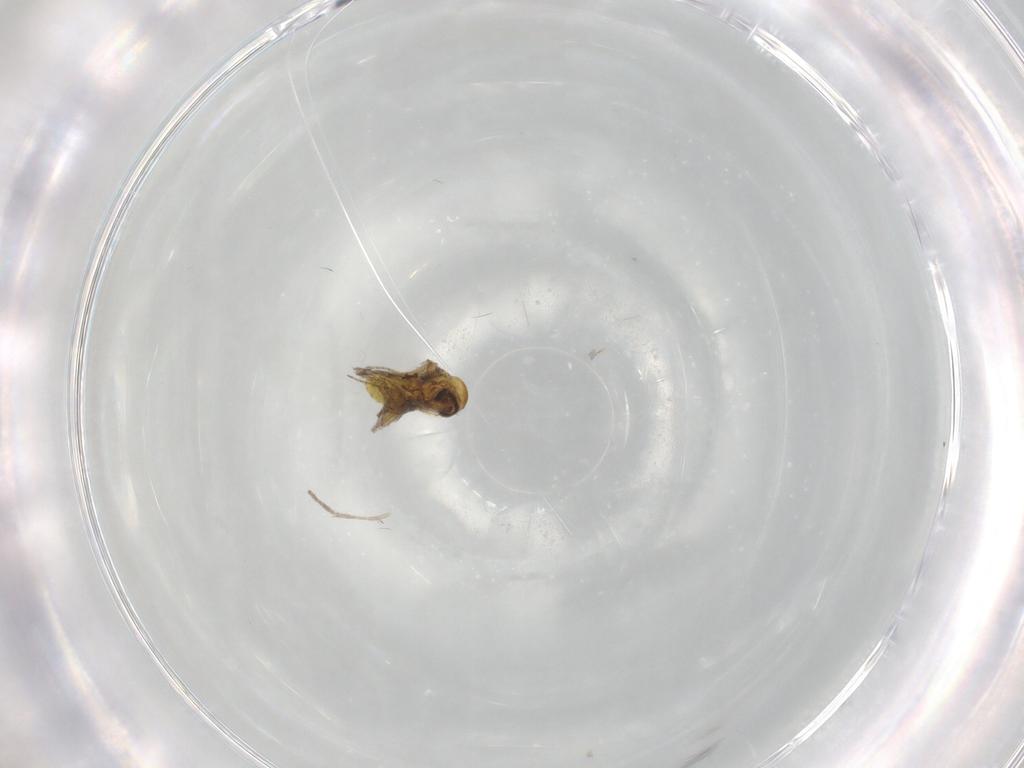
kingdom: Animalia
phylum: Arthropoda
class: Insecta
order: Diptera
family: Ceratopogonidae
